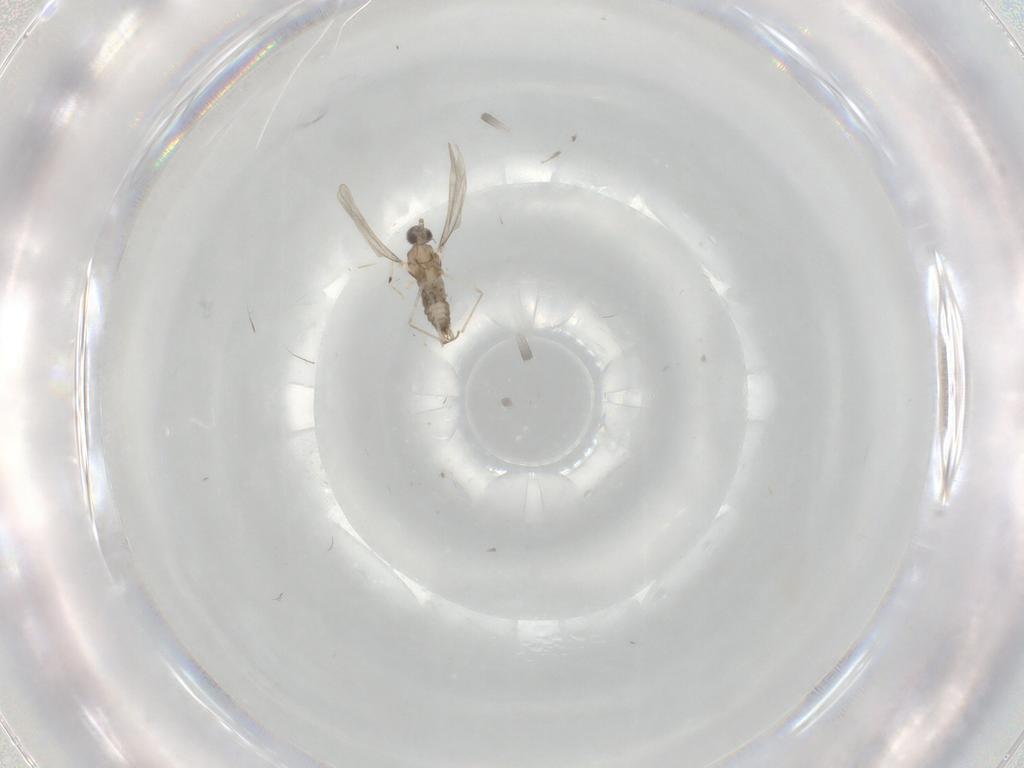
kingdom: Animalia
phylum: Arthropoda
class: Insecta
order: Diptera
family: Cecidomyiidae
